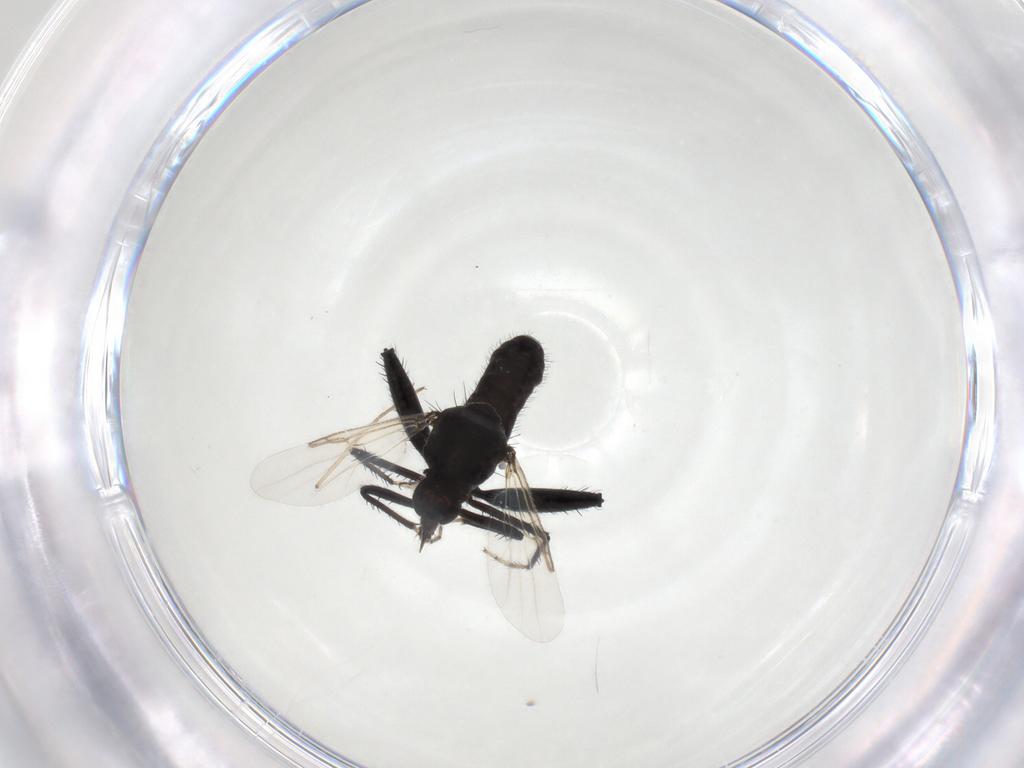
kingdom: Animalia
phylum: Arthropoda
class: Insecta
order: Diptera
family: Ceratopogonidae
